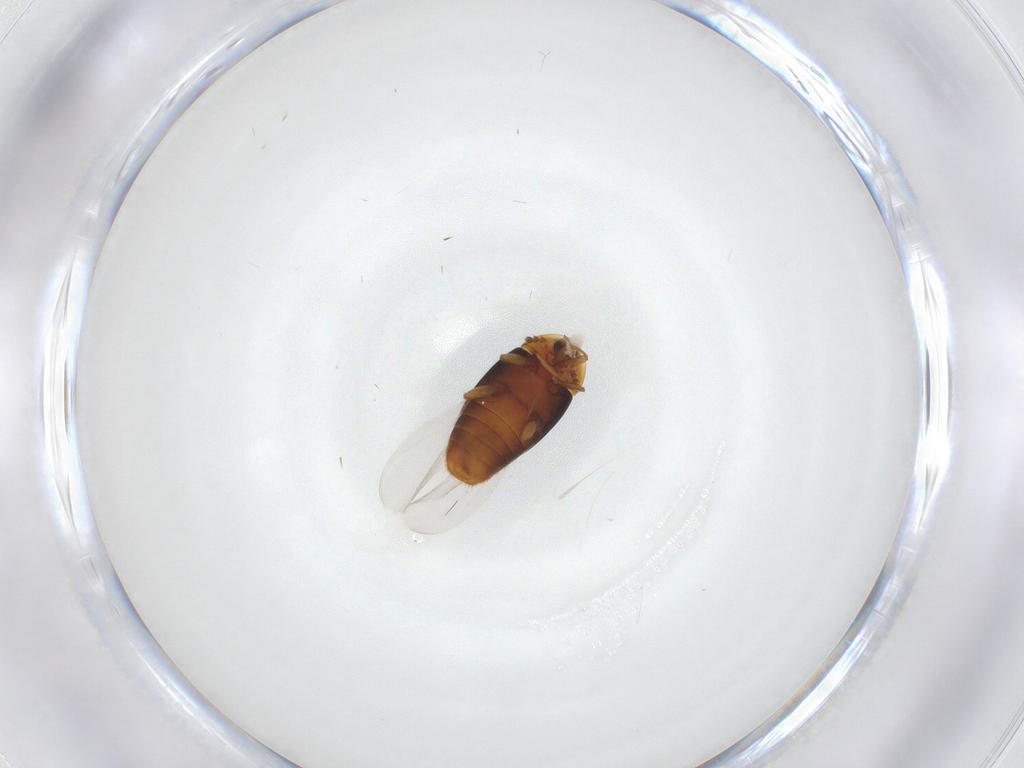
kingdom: Animalia
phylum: Arthropoda
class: Insecta
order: Coleoptera
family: Corylophidae
